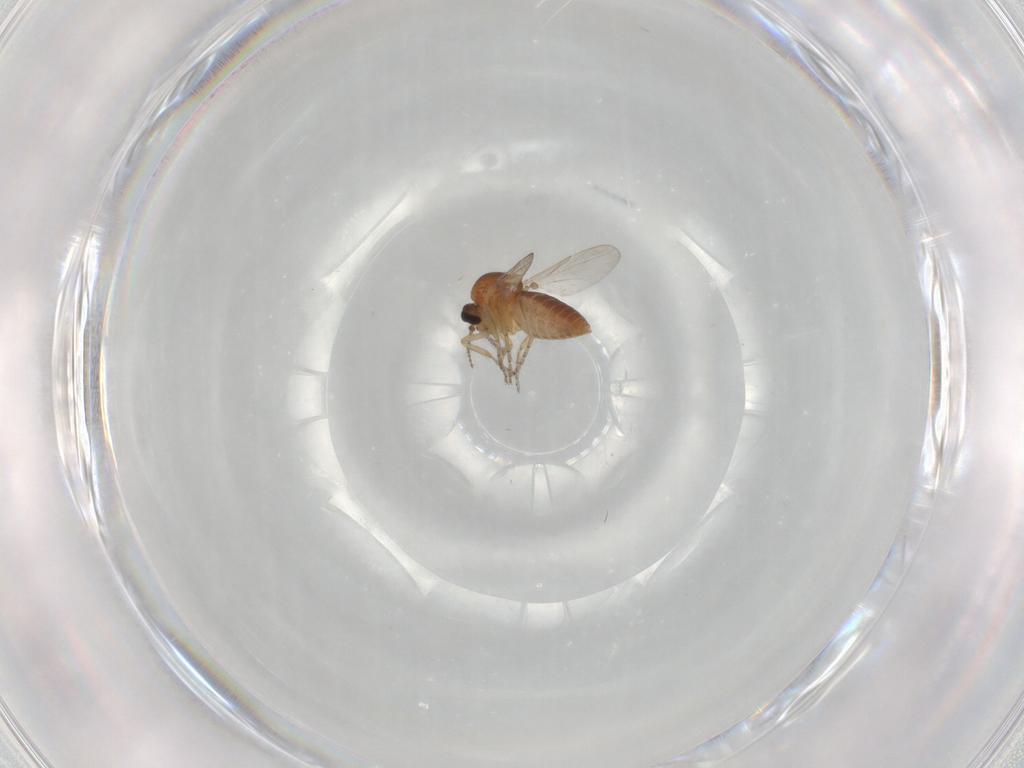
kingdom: Animalia
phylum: Arthropoda
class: Insecta
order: Diptera
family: Ceratopogonidae
